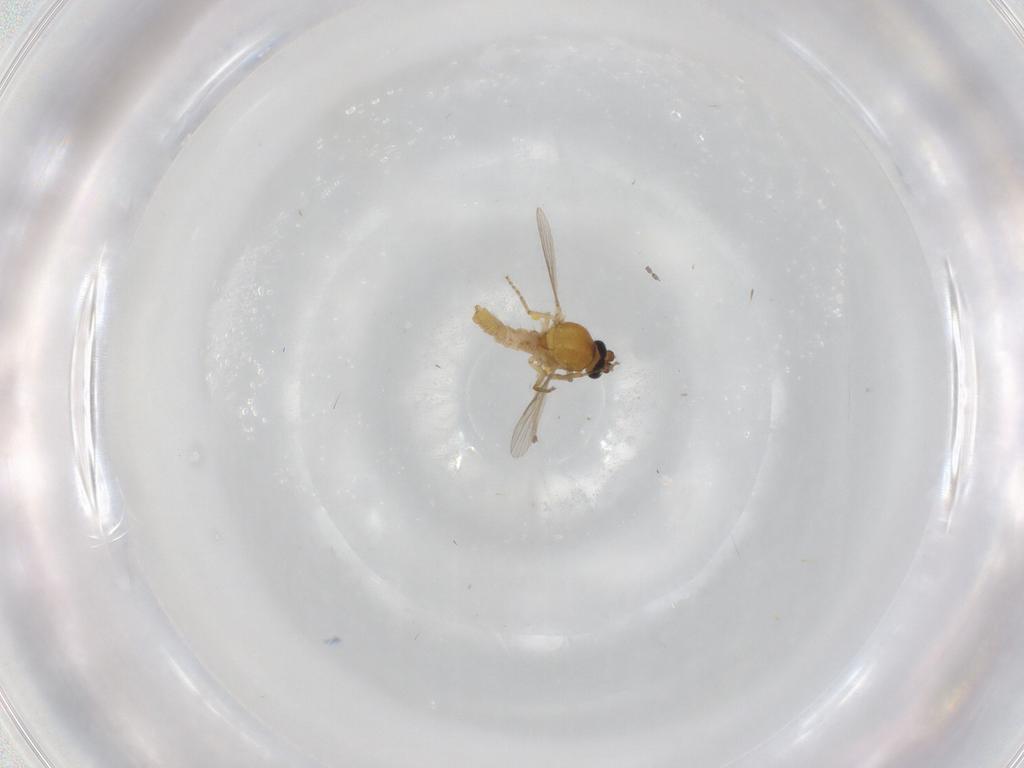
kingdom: Animalia
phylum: Arthropoda
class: Insecta
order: Diptera
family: Ceratopogonidae
